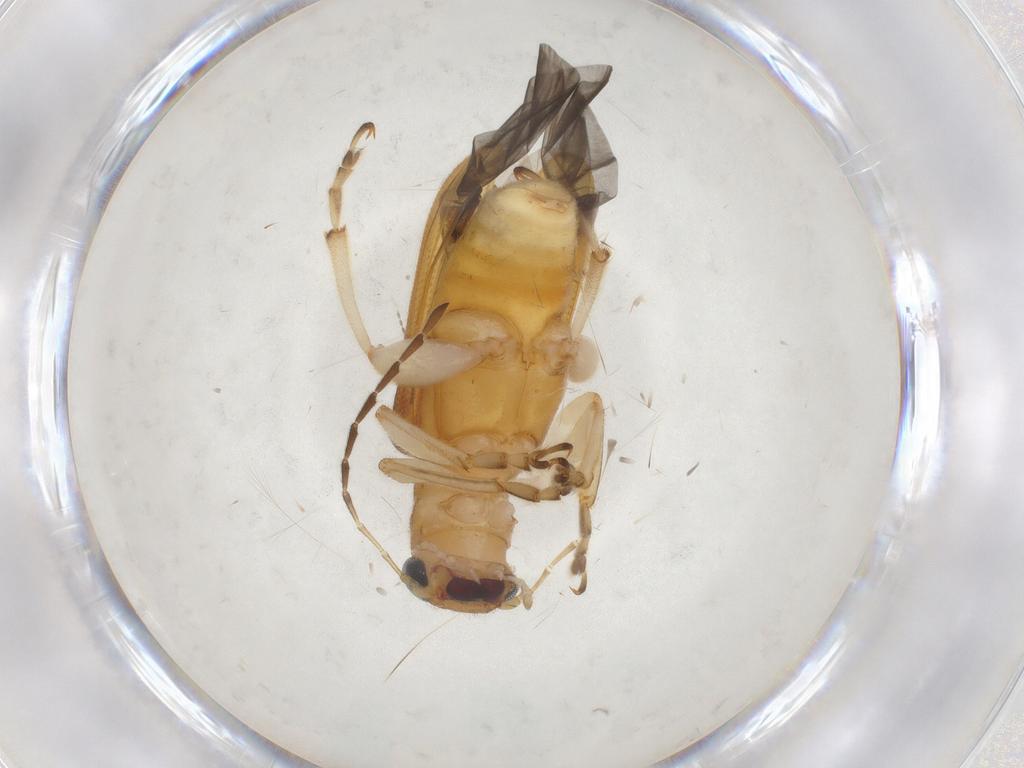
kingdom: Animalia
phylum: Arthropoda
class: Insecta
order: Coleoptera
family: Chrysomelidae
